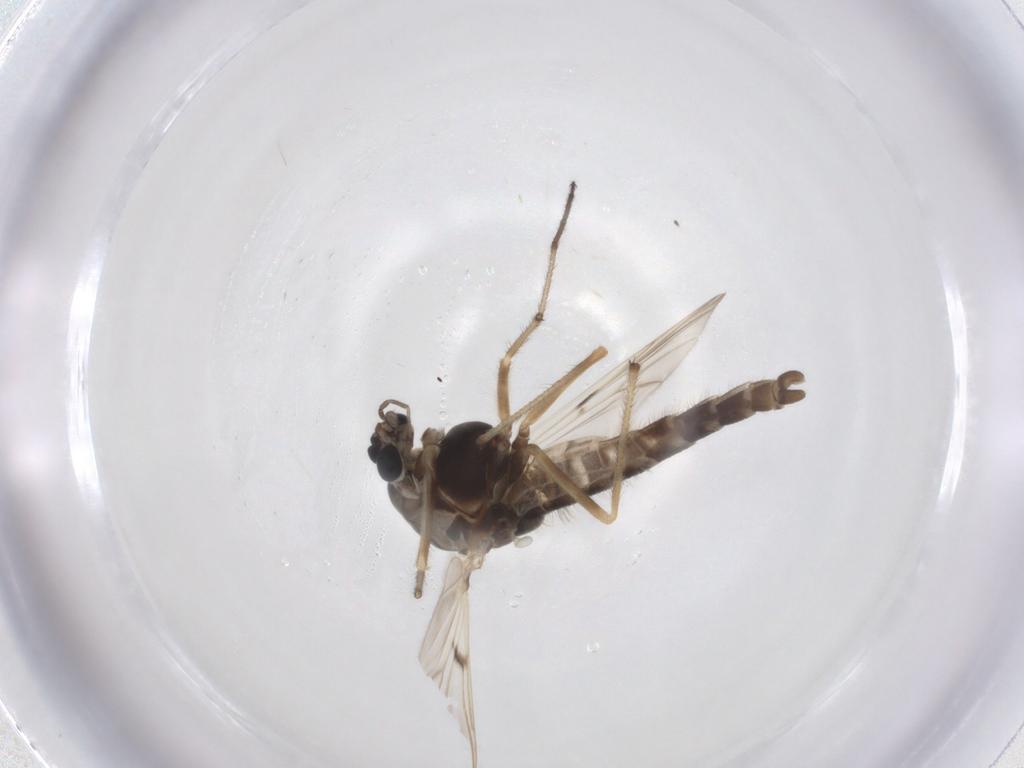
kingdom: Animalia
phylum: Arthropoda
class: Insecta
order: Diptera
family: Chironomidae
